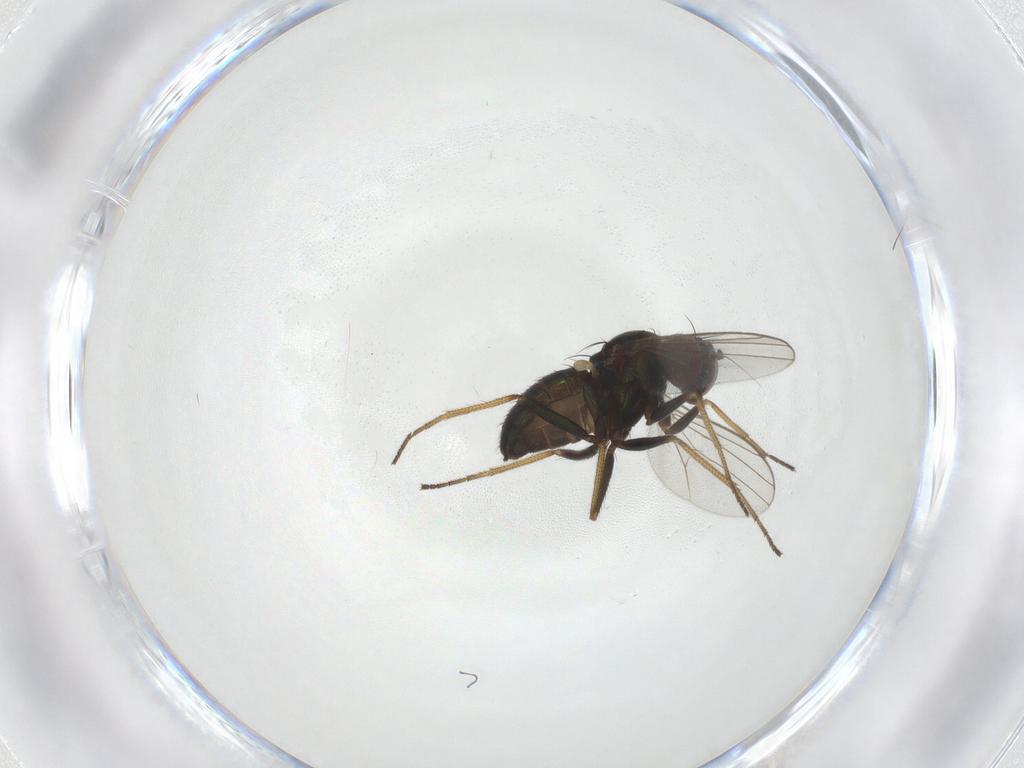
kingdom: Animalia
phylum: Arthropoda
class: Insecta
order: Diptera
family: Dolichopodidae
